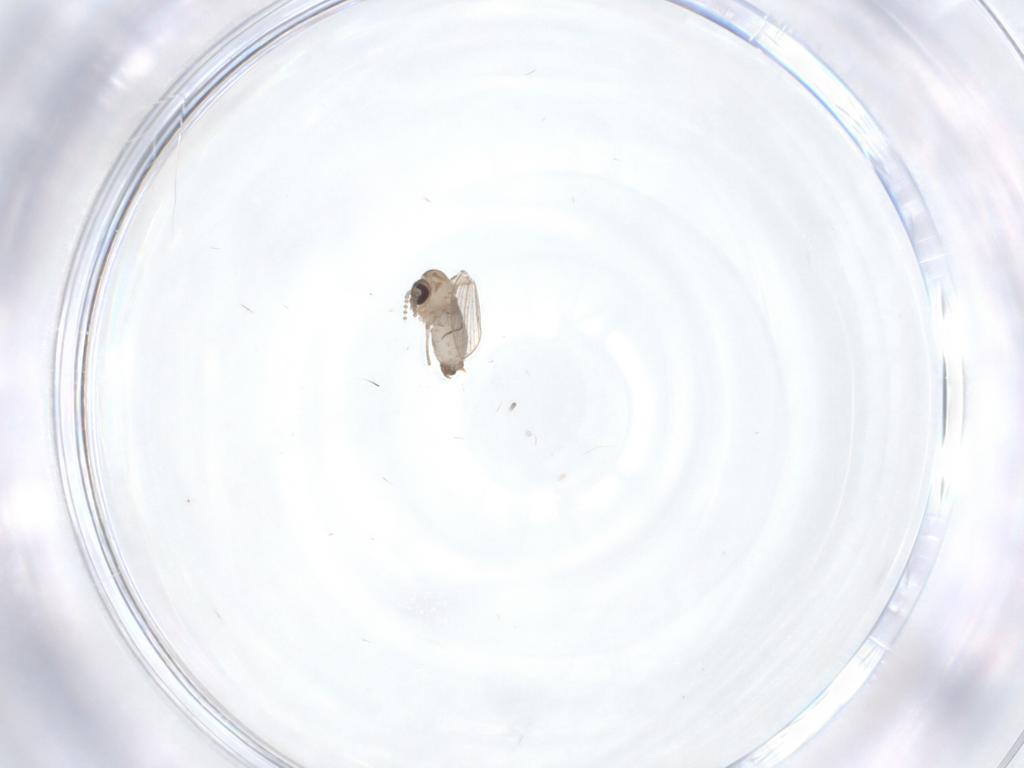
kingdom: Animalia
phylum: Arthropoda
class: Insecta
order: Diptera
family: Psychodidae
